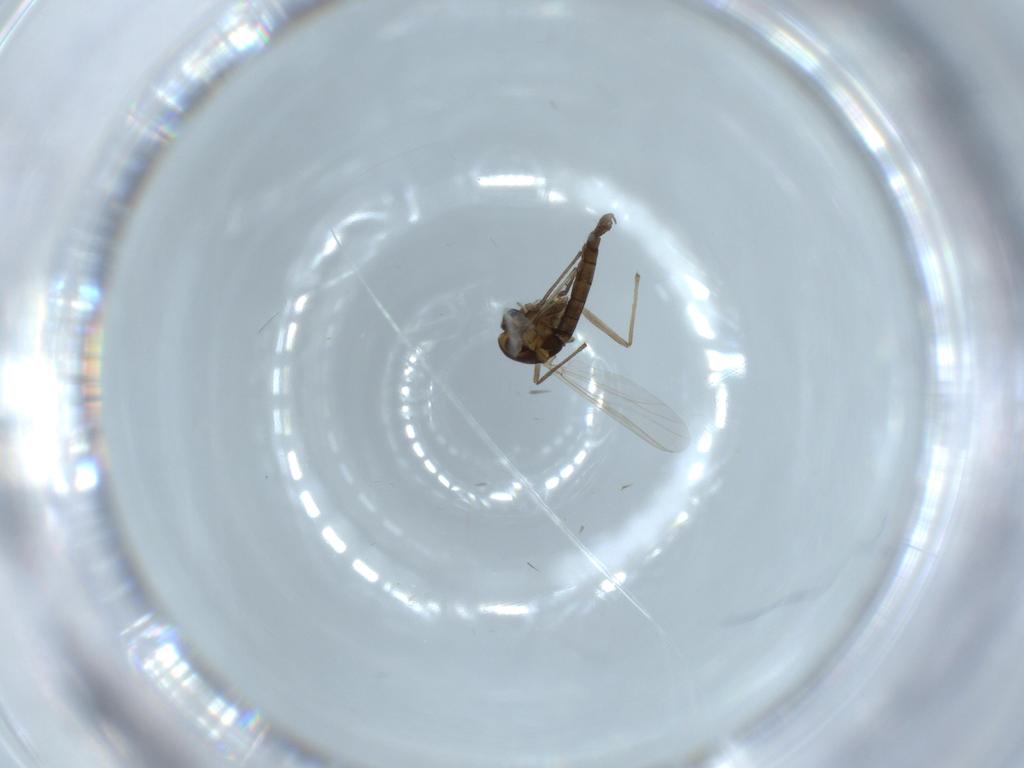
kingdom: Animalia
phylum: Arthropoda
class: Insecta
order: Diptera
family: Chironomidae
